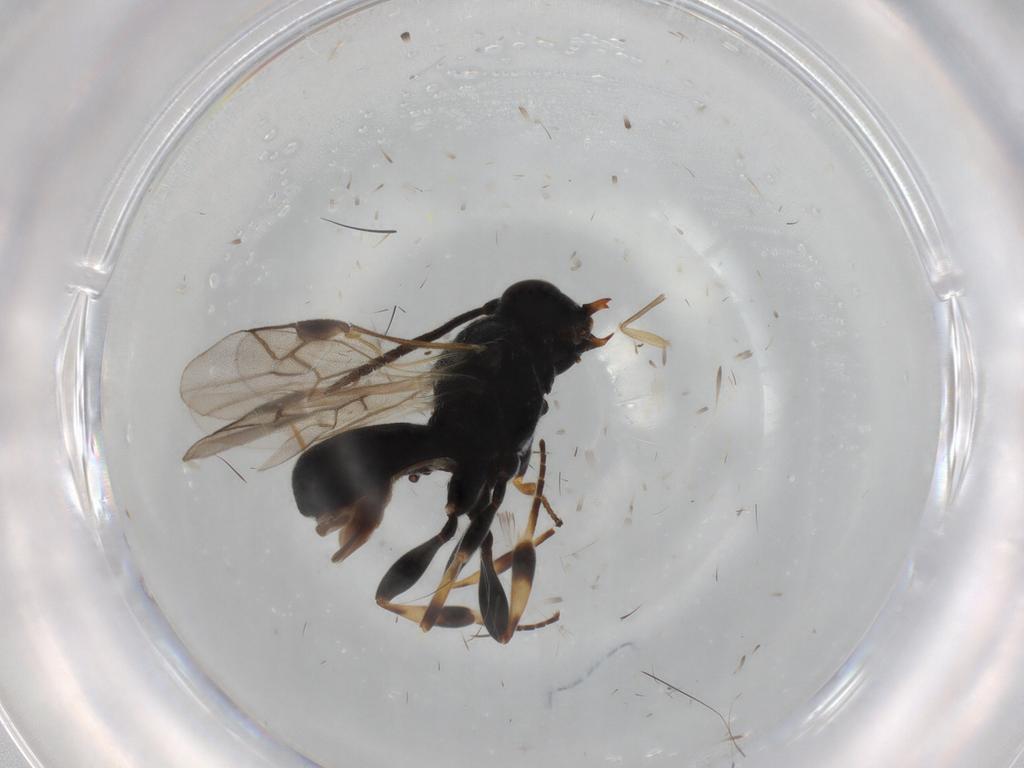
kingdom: Animalia
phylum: Arthropoda
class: Insecta
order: Hymenoptera
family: Braconidae
